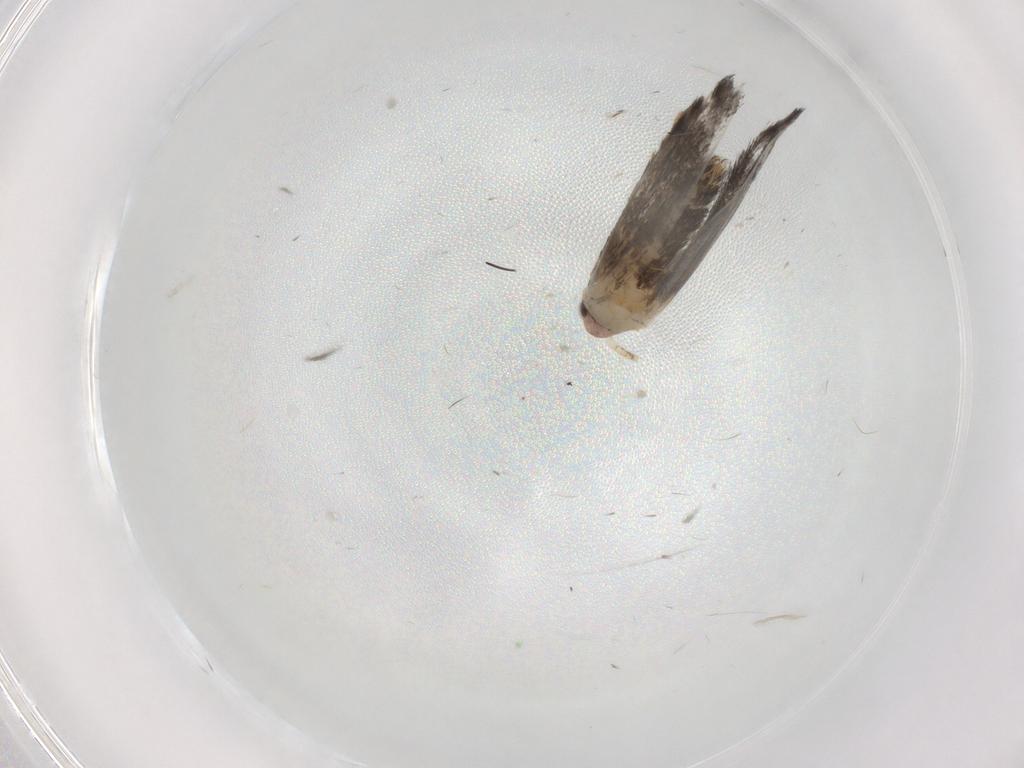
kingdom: Animalia
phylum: Arthropoda
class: Insecta
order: Lepidoptera
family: Tineidae
